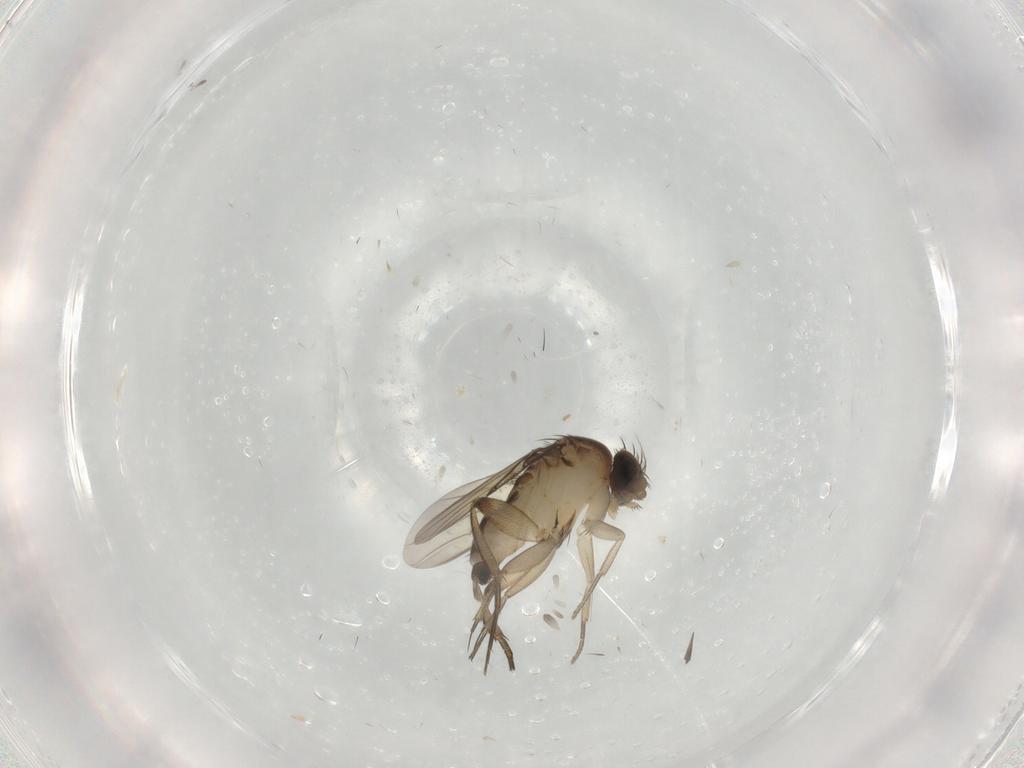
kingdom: Animalia
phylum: Arthropoda
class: Insecta
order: Diptera
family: Phoridae
